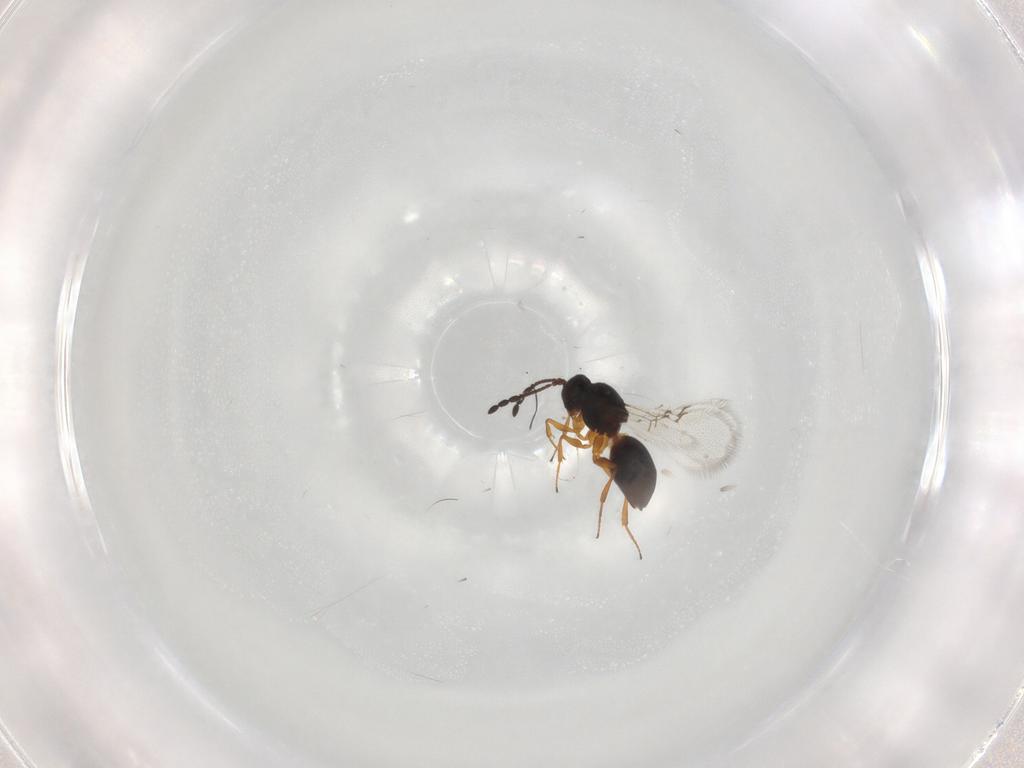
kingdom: Animalia
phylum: Arthropoda
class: Insecta
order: Hymenoptera
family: Figitidae
